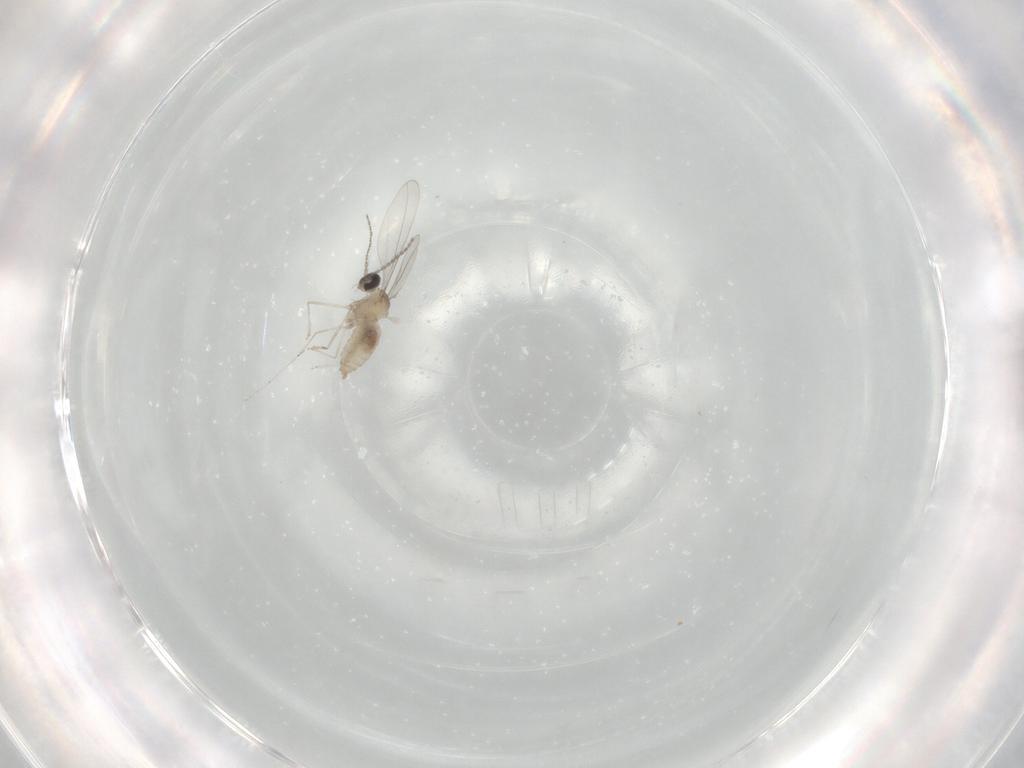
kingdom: Animalia
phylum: Arthropoda
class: Insecta
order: Diptera
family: Cecidomyiidae
